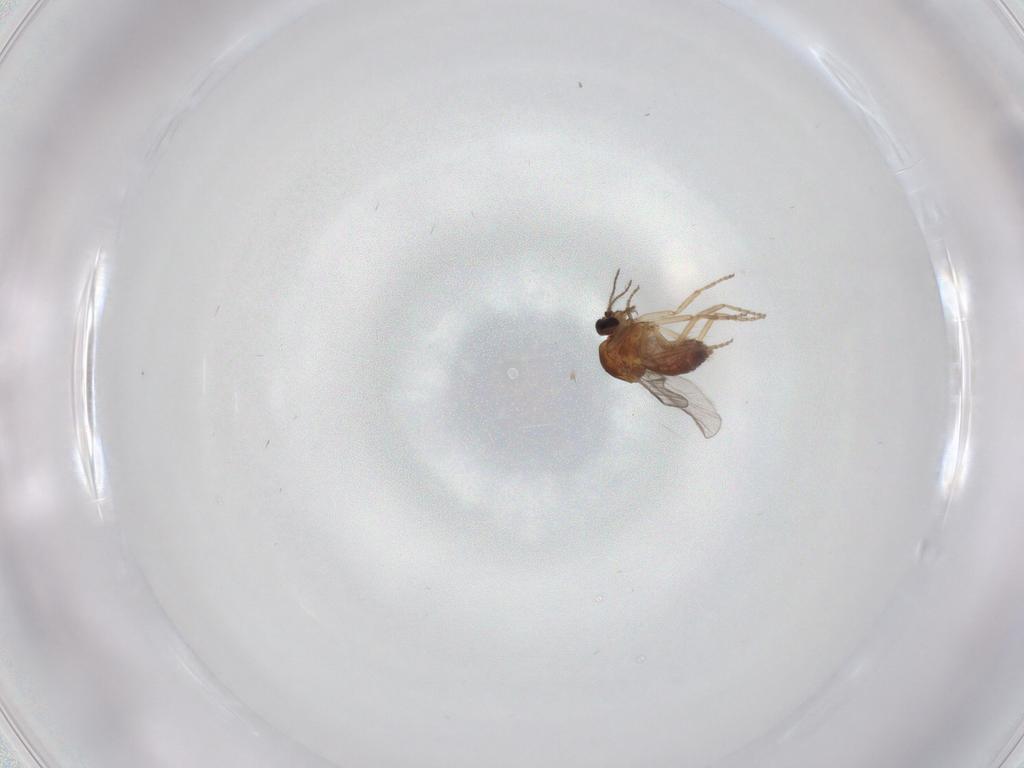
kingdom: Animalia
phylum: Arthropoda
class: Insecta
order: Diptera
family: Ceratopogonidae
